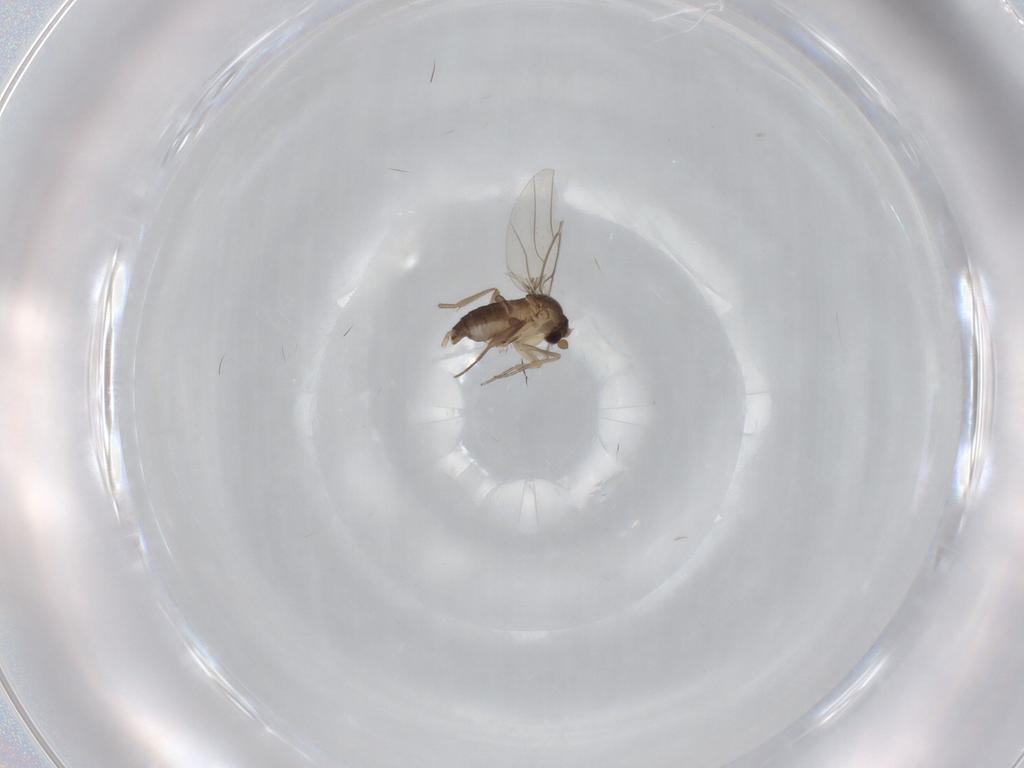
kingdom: Animalia
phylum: Arthropoda
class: Insecta
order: Diptera
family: Phoridae
